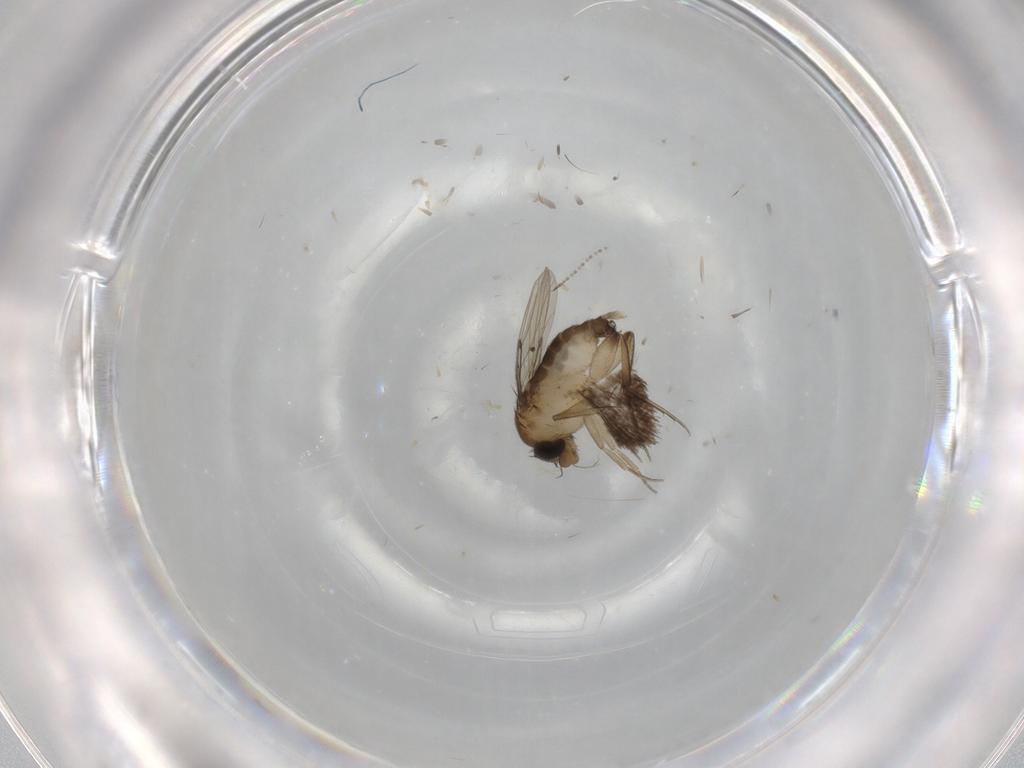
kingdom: Animalia
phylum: Arthropoda
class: Insecta
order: Diptera
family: Phoridae
